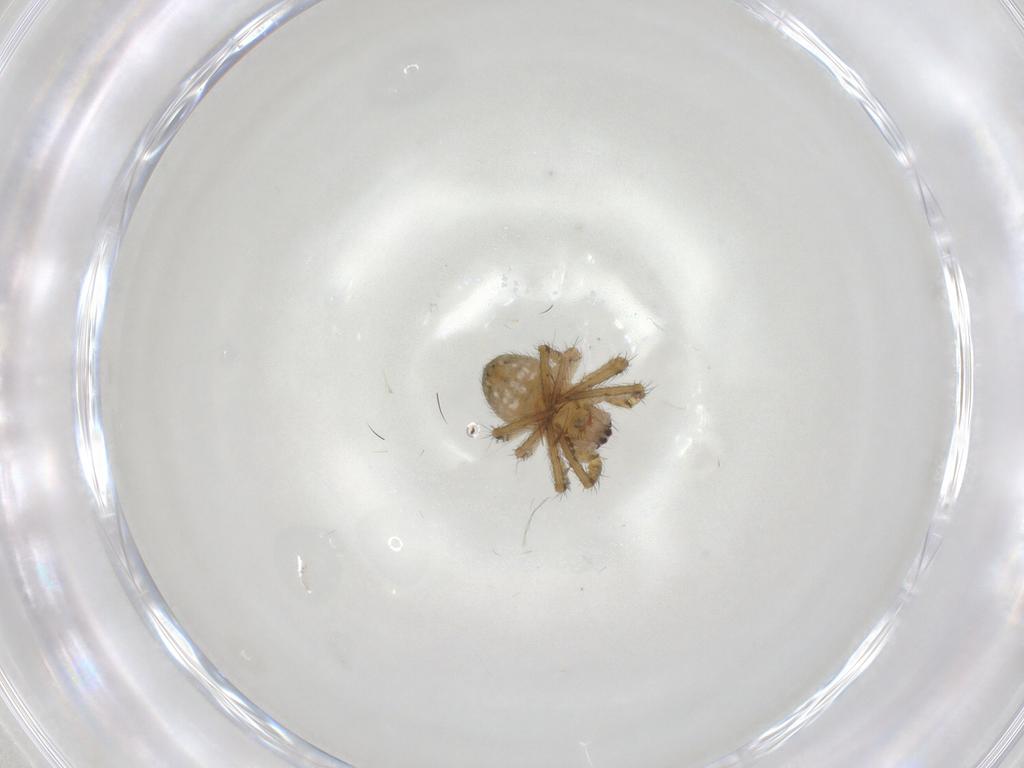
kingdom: Animalia
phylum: Arthropoda
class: Arachnida
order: Araneae
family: Araneidae
